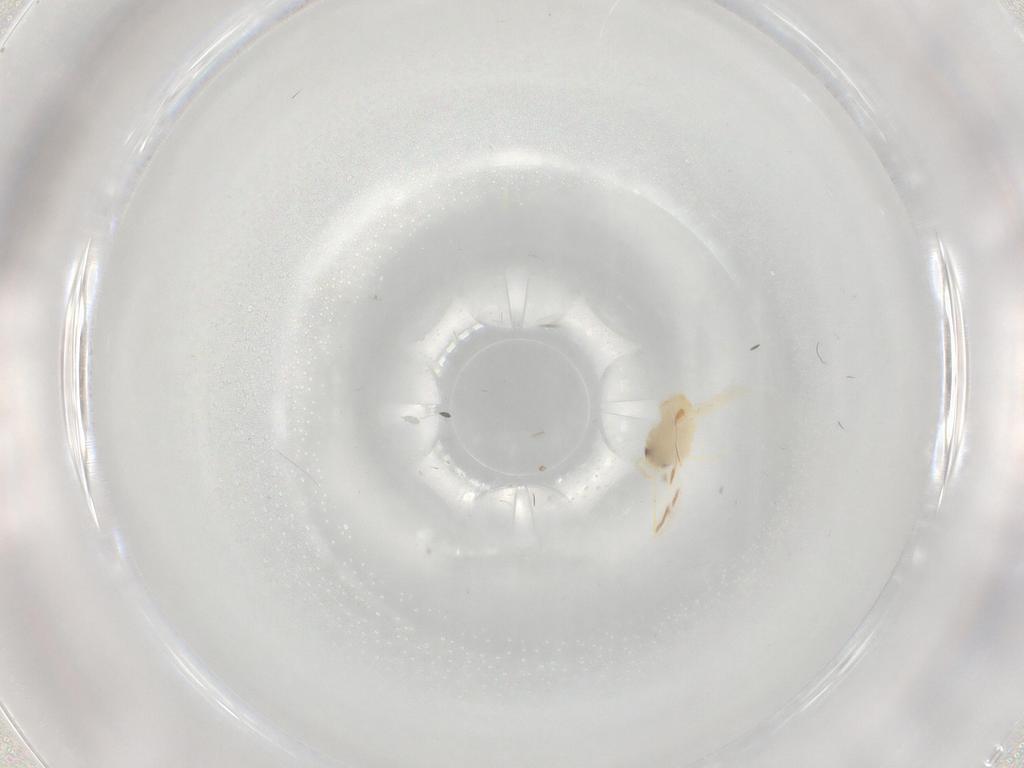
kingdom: Animalia
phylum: Arthropoda
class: Insecta
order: Hemiptera
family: Aleyrodidae
